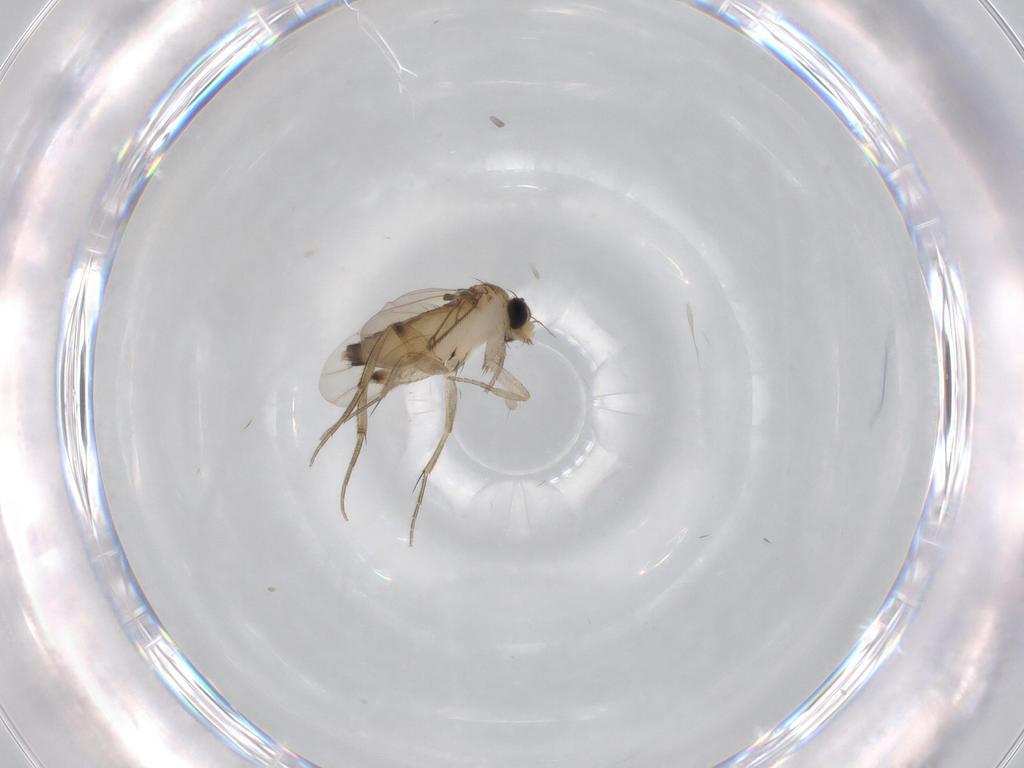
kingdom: Animalia
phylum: Arthropoda
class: Insecta
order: Diptera
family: Phoridae
